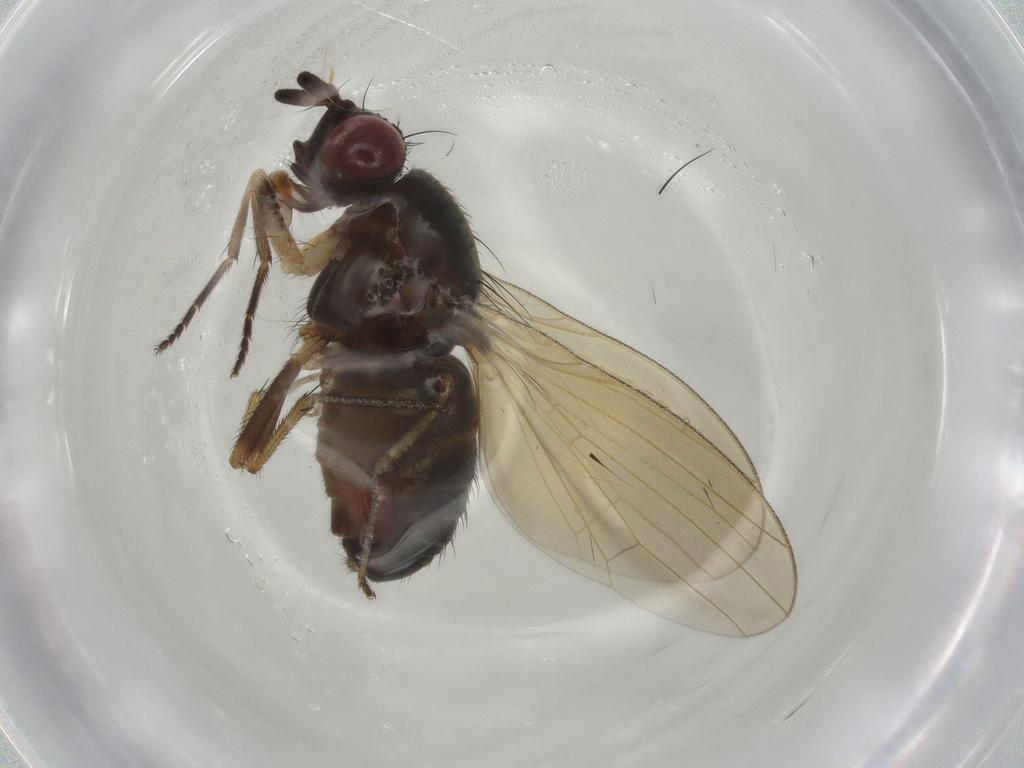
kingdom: Animalia
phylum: Arthropoda
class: Insecta
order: Diptera
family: Lauxaniidae
